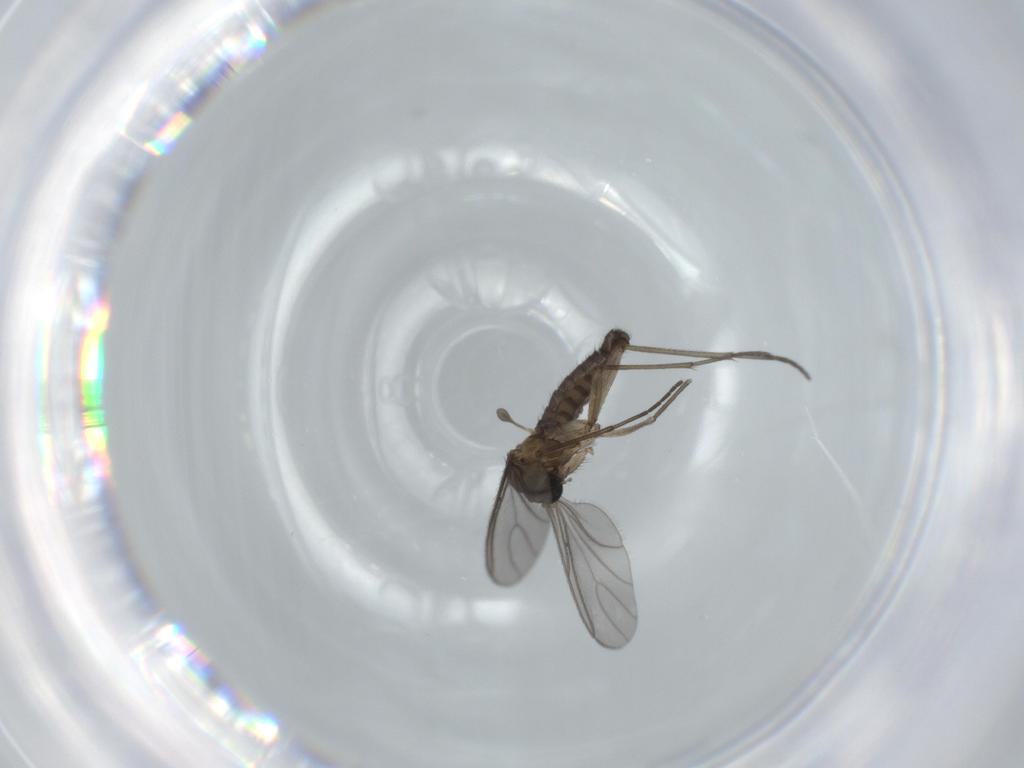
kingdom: Animalia
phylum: Arthropoda
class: Insecta
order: Diptera
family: Sciaridae
